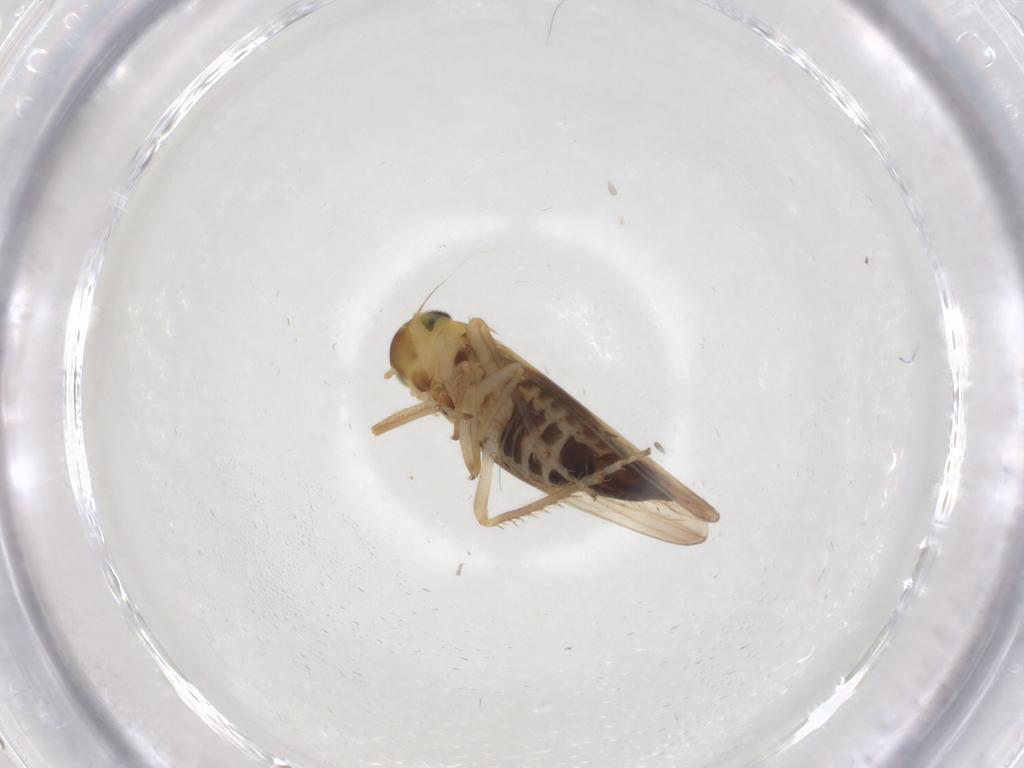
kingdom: Animalia
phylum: Arthropoda
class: Insecta
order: Hemiptera
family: Cicadellidae
